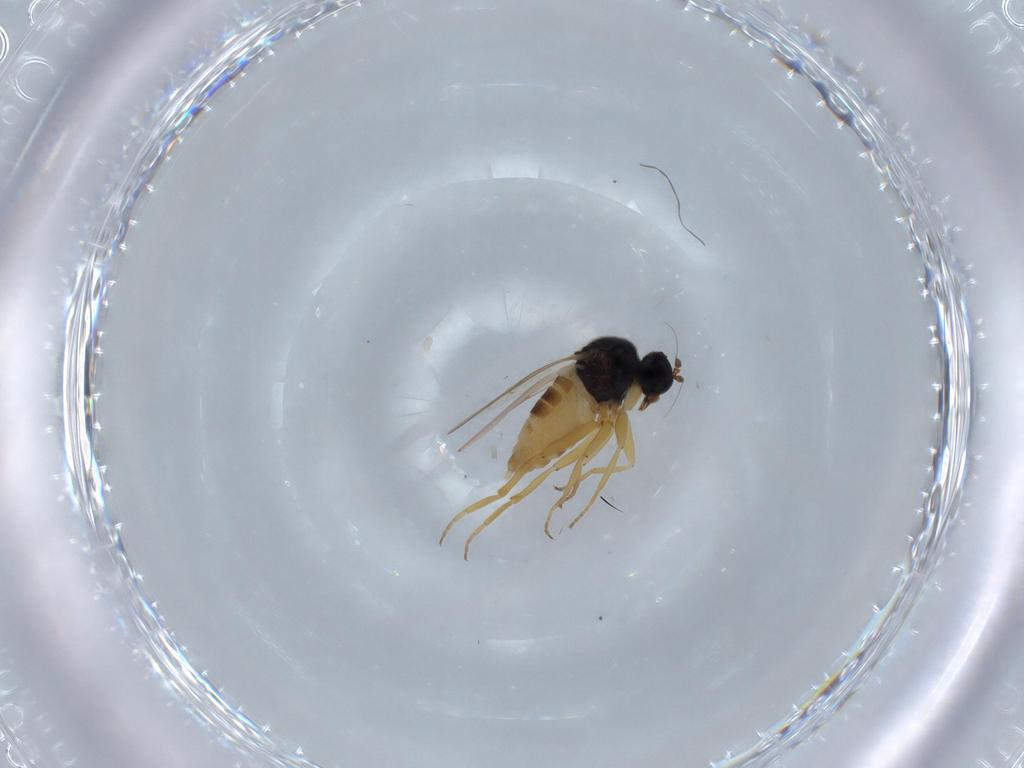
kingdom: Animalia
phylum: Arthropoda
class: Insecta
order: Diptera
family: Hybotidae
